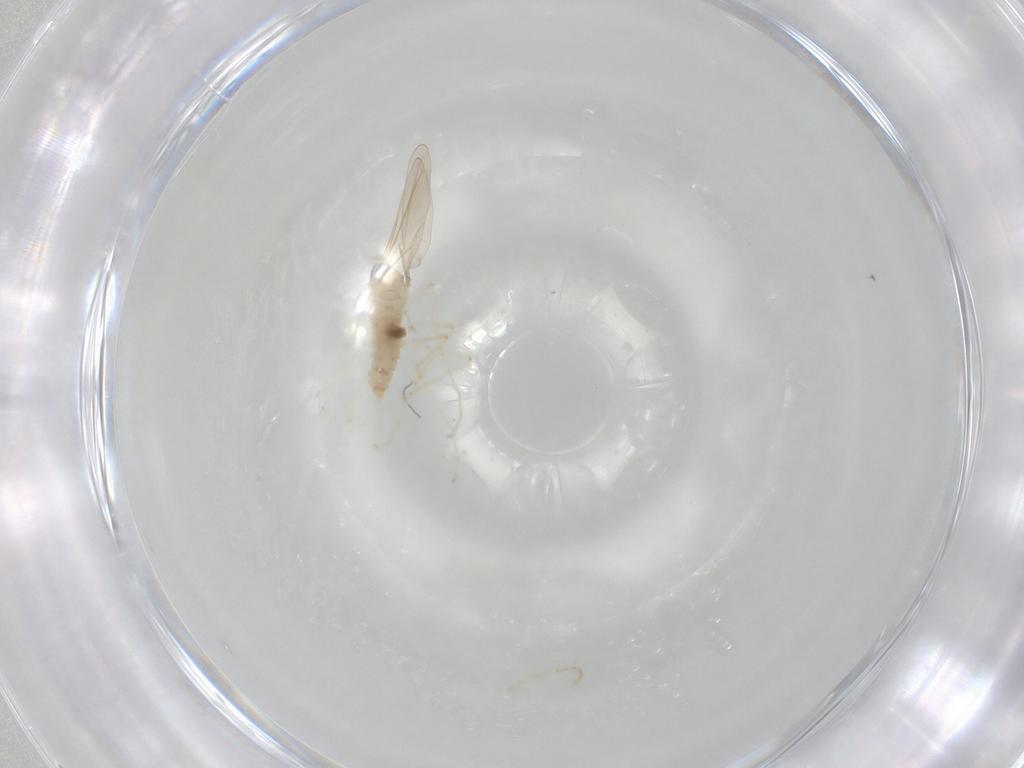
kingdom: Animalia
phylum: Arthropoda
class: Insecta
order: Diptera
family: Cecidomyiidae
